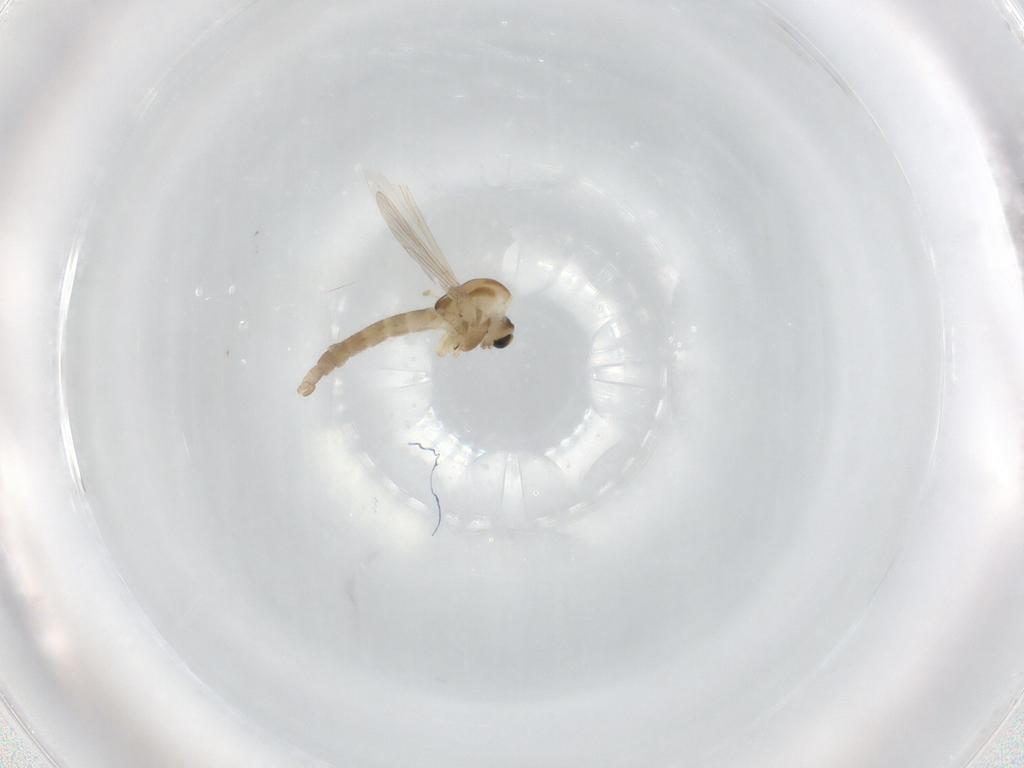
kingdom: Animalia
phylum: Arthropoda
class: Insecta
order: Diptera
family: Chironomidae
